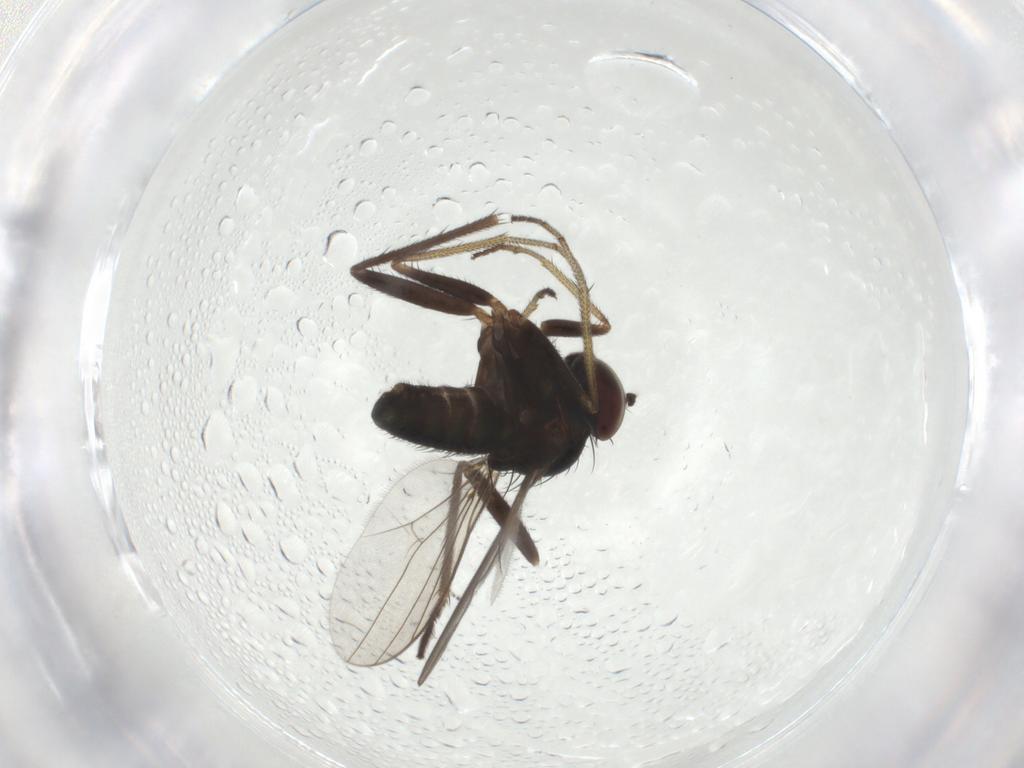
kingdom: Animalia
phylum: Arthropoda
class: Insecta
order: Diptera
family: Dolichopodidae
